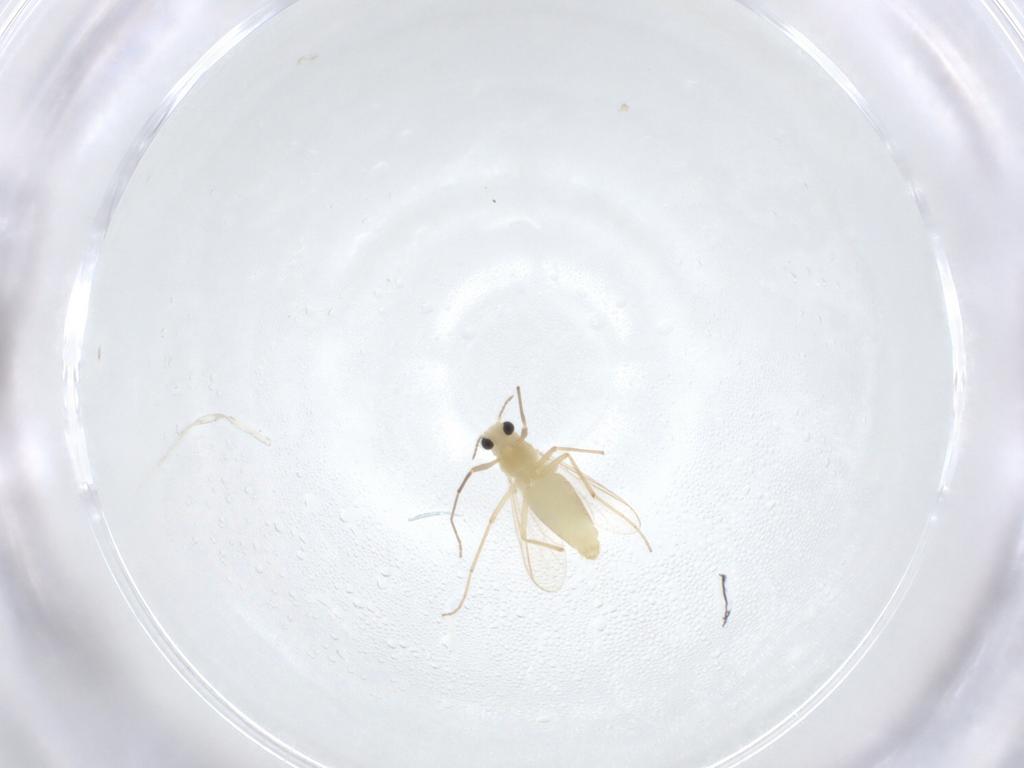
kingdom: Animalia
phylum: Arthropoda
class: Insecta
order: Diptera
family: Chironomidae
